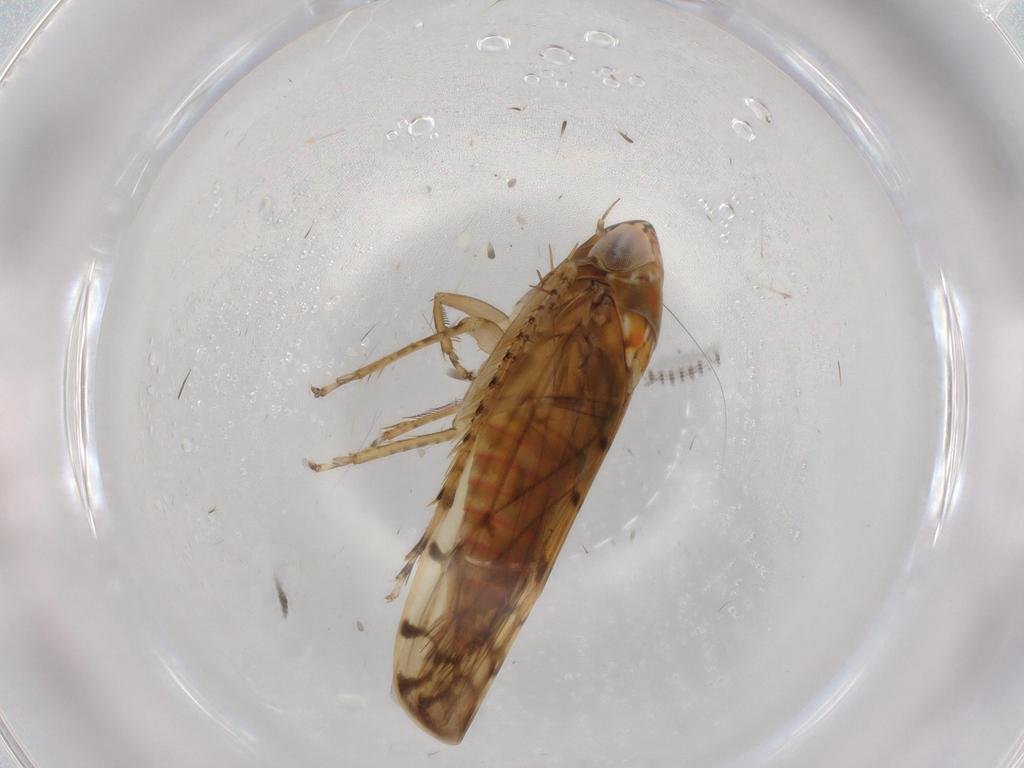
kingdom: Animalia
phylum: Arthropoda
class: Insecta
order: Hemiptera
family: Cicadellidae
